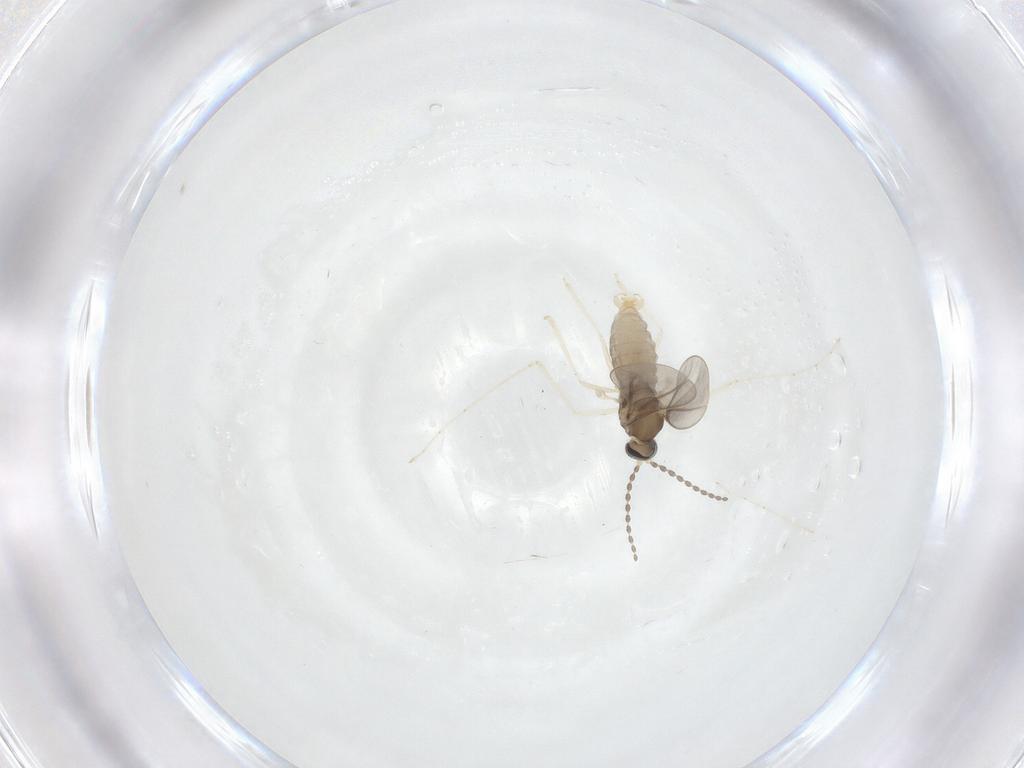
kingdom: Animalia
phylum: Arthropoda
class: Insecta
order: Diptera
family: Cecidomyiidae
